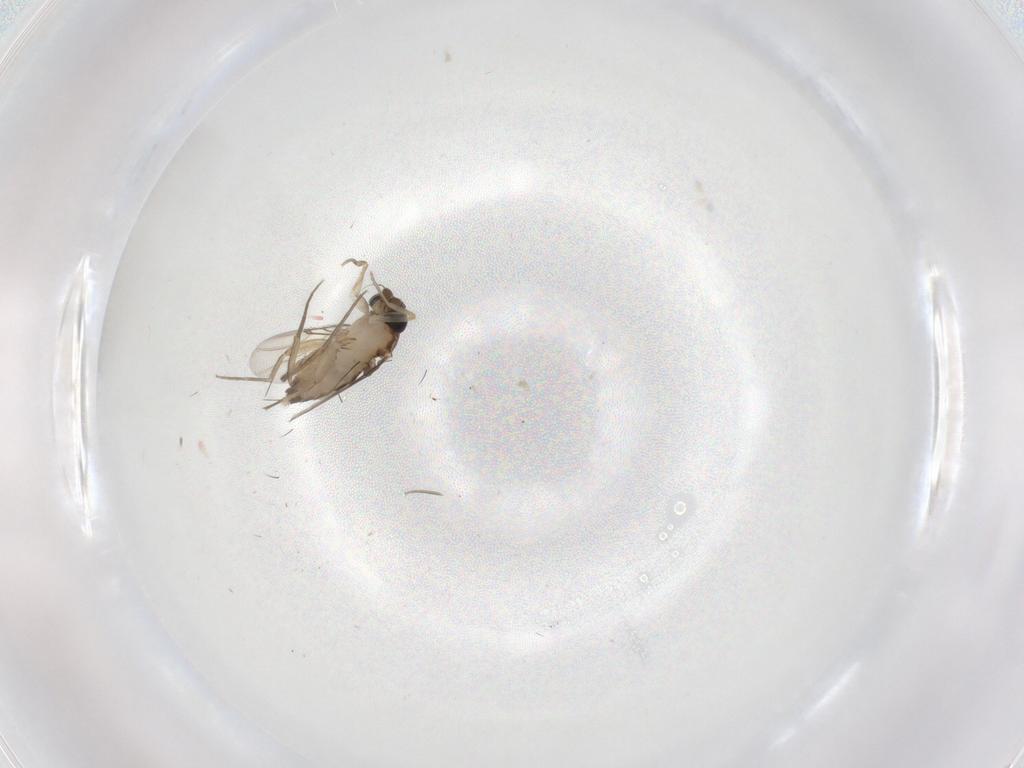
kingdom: Animalia
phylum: Arthropoda
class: Insecta
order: Diptera
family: Phoridae
